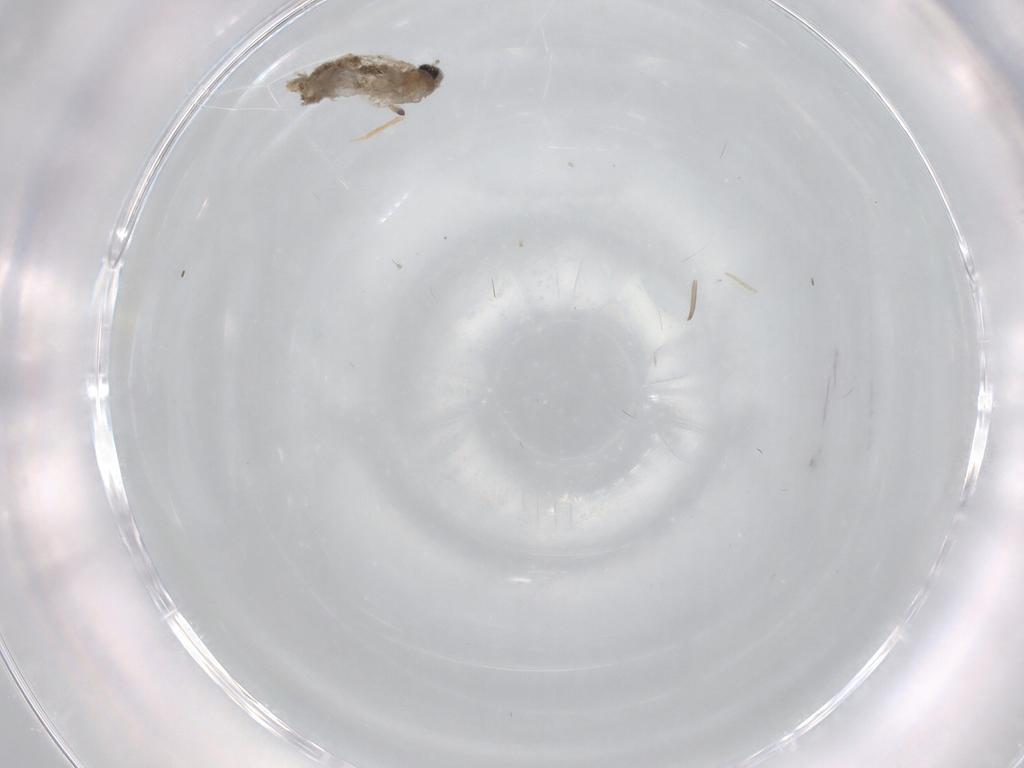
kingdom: Animalia
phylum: Arthropoda
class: Insecta
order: Diptera
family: Cecidomyiidae
